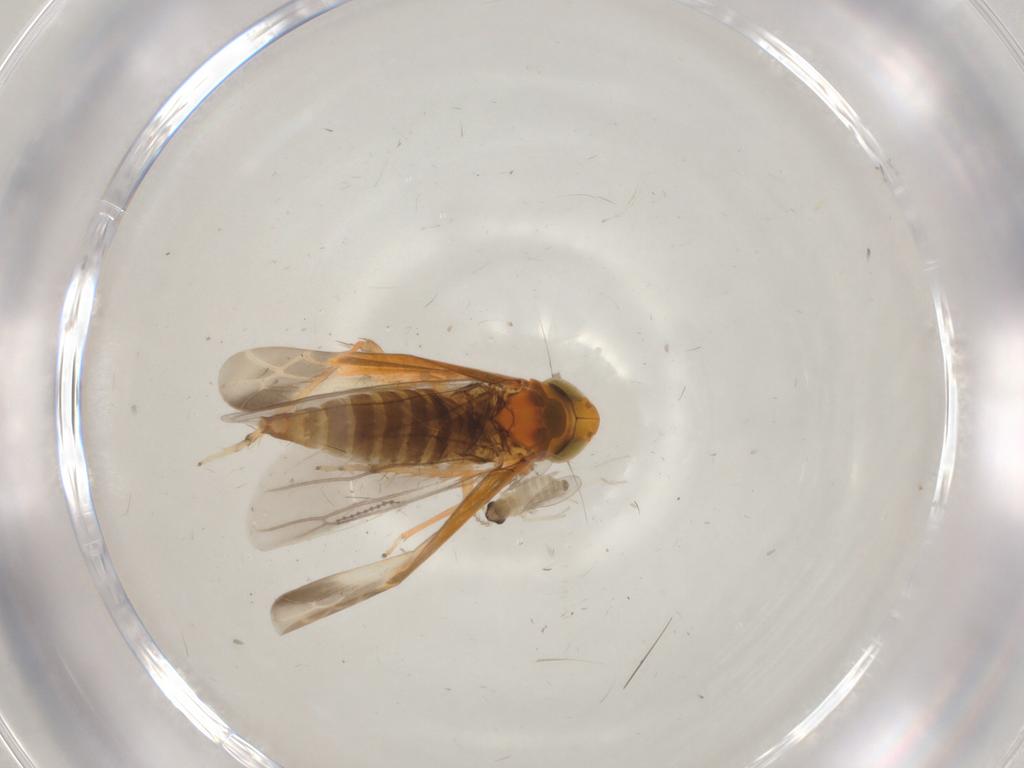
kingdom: Animalia
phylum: Arthropoda
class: Insecta
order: Hemiptera
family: Cicadellidae
